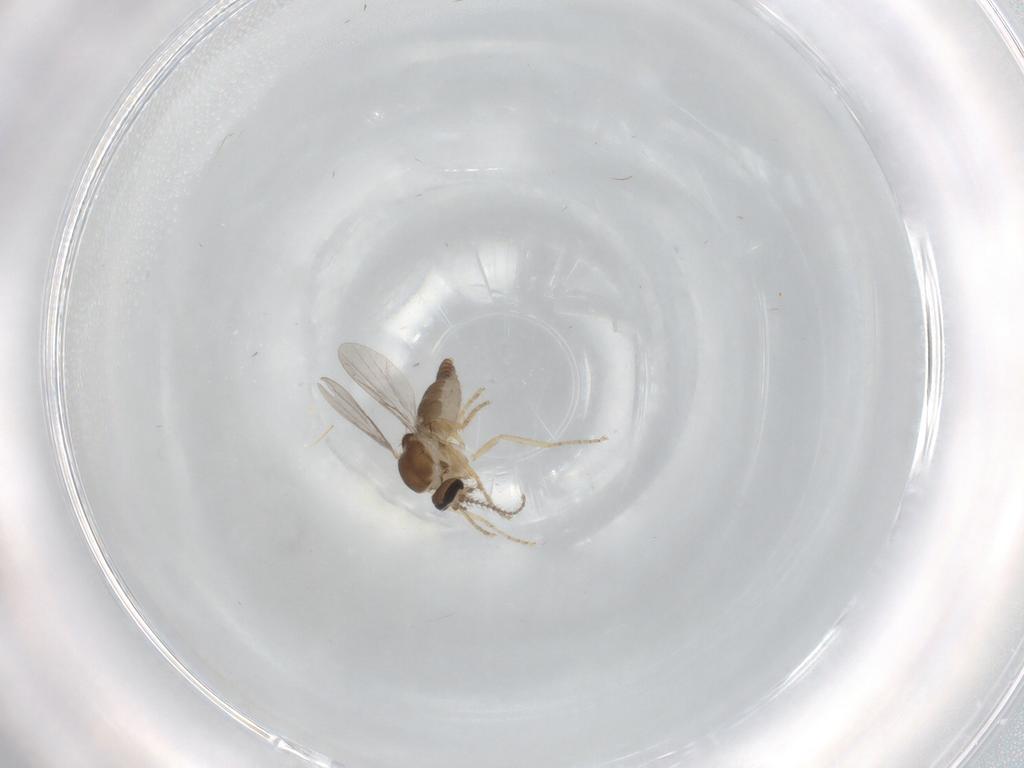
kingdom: Animalia
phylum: Arthropoda
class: Insecta
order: Diptera
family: Ceratopogonidae
